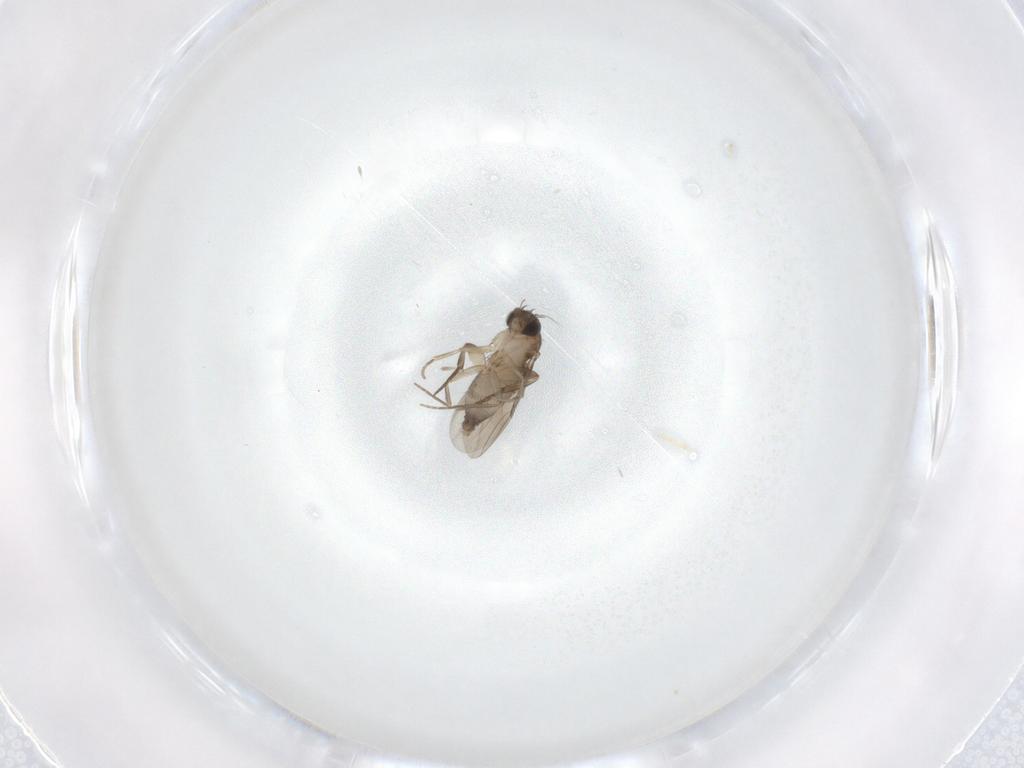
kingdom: Animalia
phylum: Arthropoda
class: Insecta
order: Diptera
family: Phoridae
